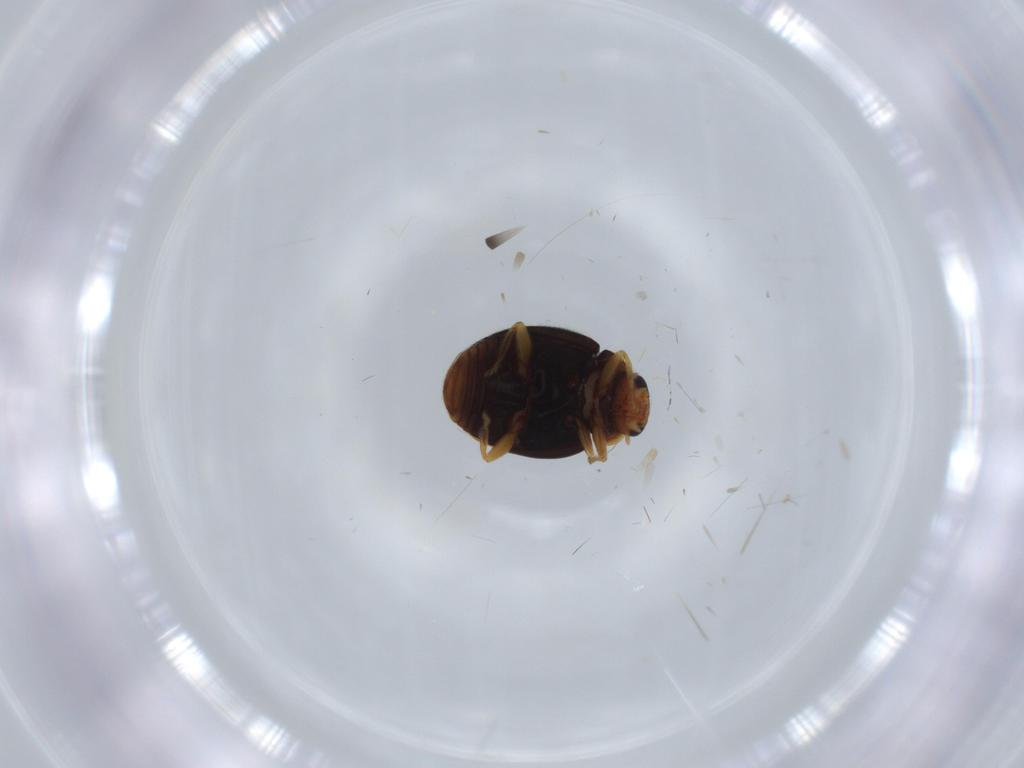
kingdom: Animalia
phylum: Arthropoda
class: Insecta
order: Coleoptera
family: Coccinellidae
